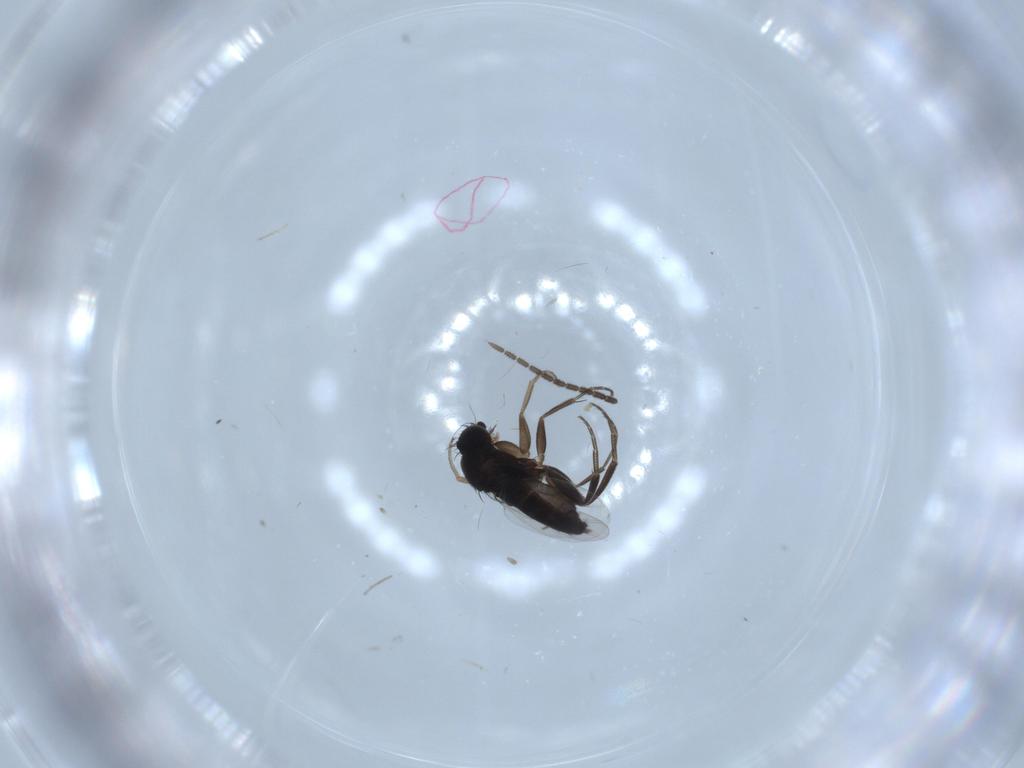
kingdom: Animalia
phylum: Arthropoda
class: Insecta
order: Diptera
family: Phoridae
